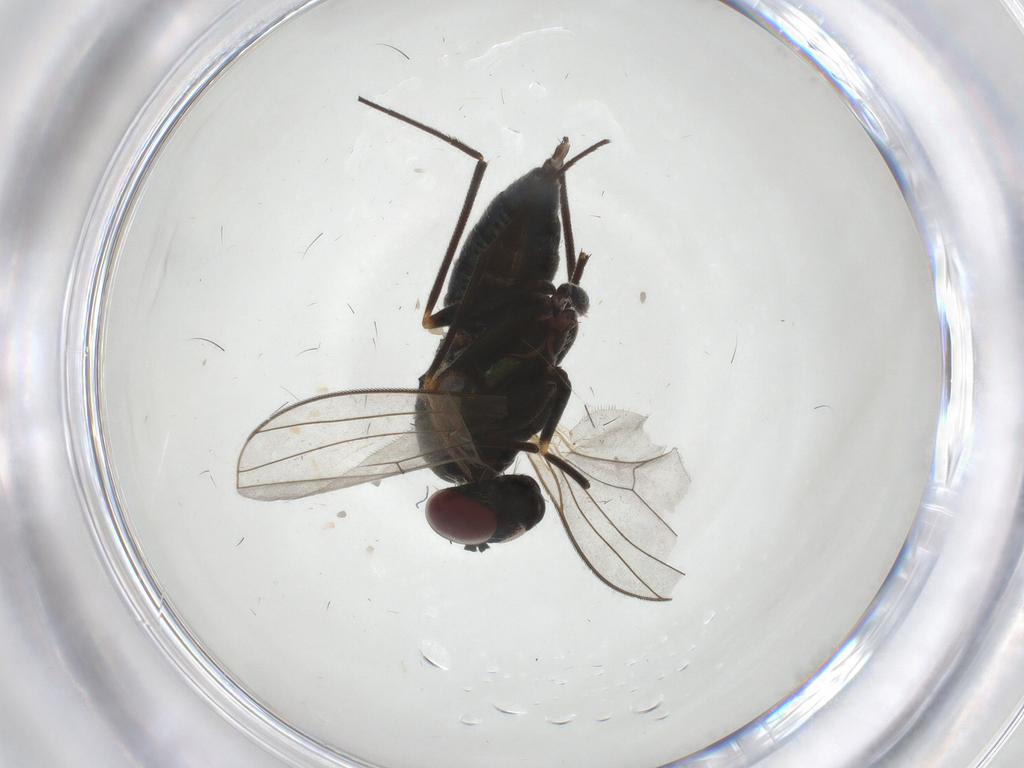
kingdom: Animalia
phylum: Arthropoda
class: Insecta
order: Diptera
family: Dolichopodidae
